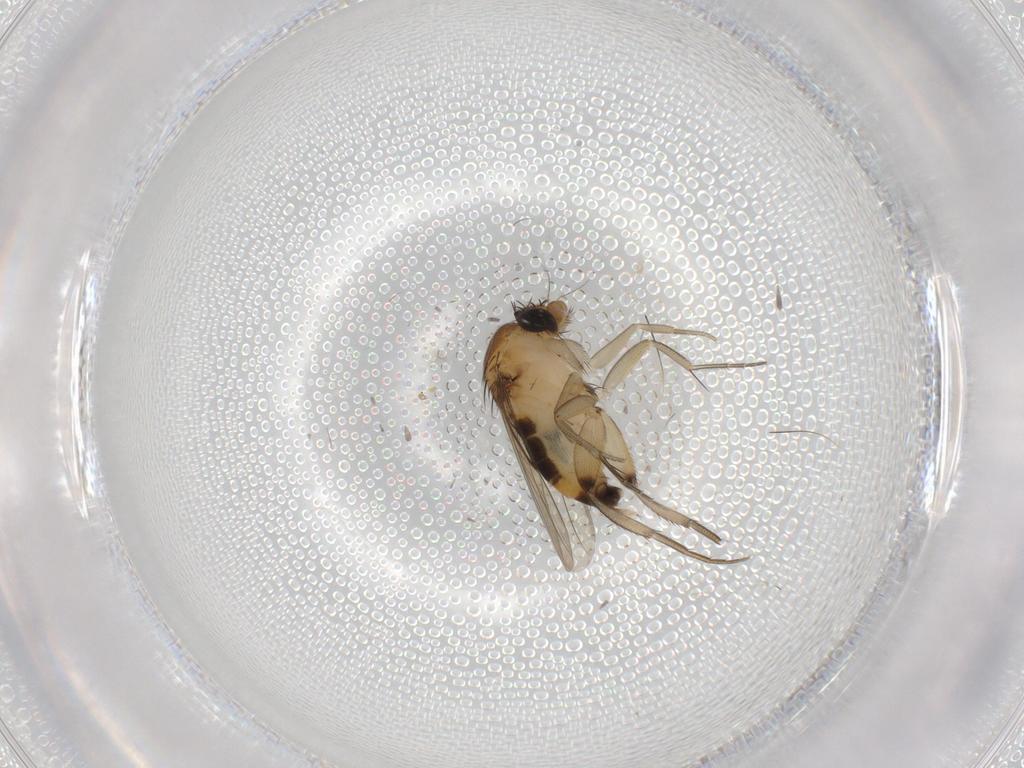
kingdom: Animalia
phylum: Arthropoda
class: Insecta
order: Diptera
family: Phoridae
